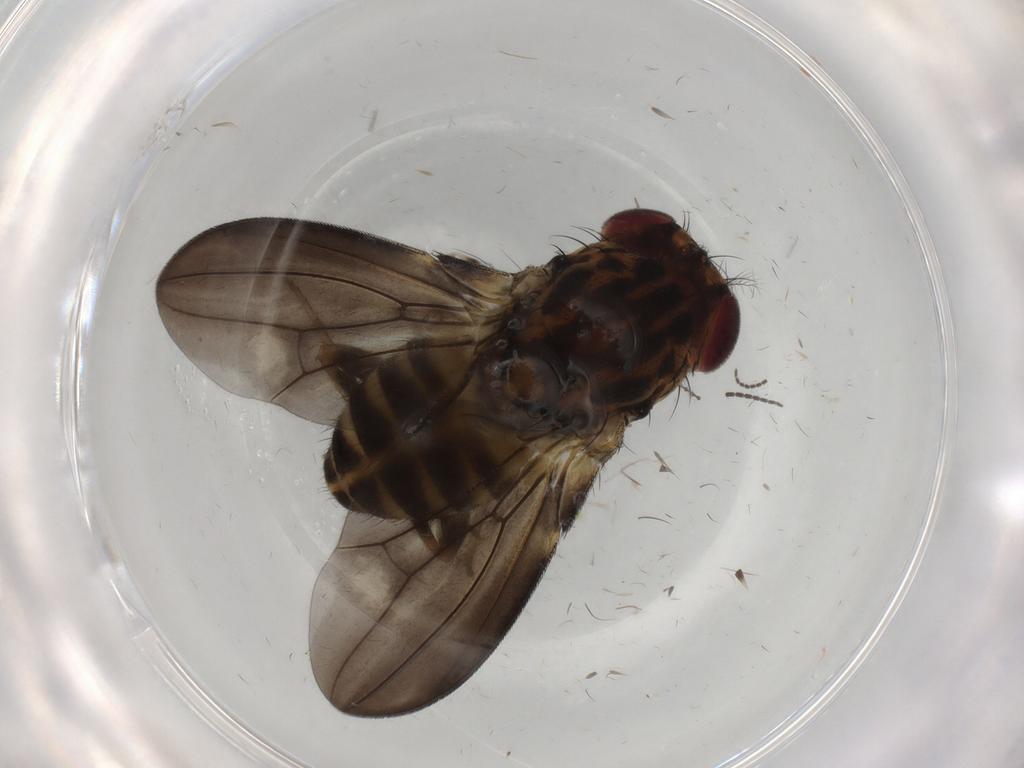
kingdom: Animalia
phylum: Arthropoda
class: Insecta
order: Diptera
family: Drosophilidae
